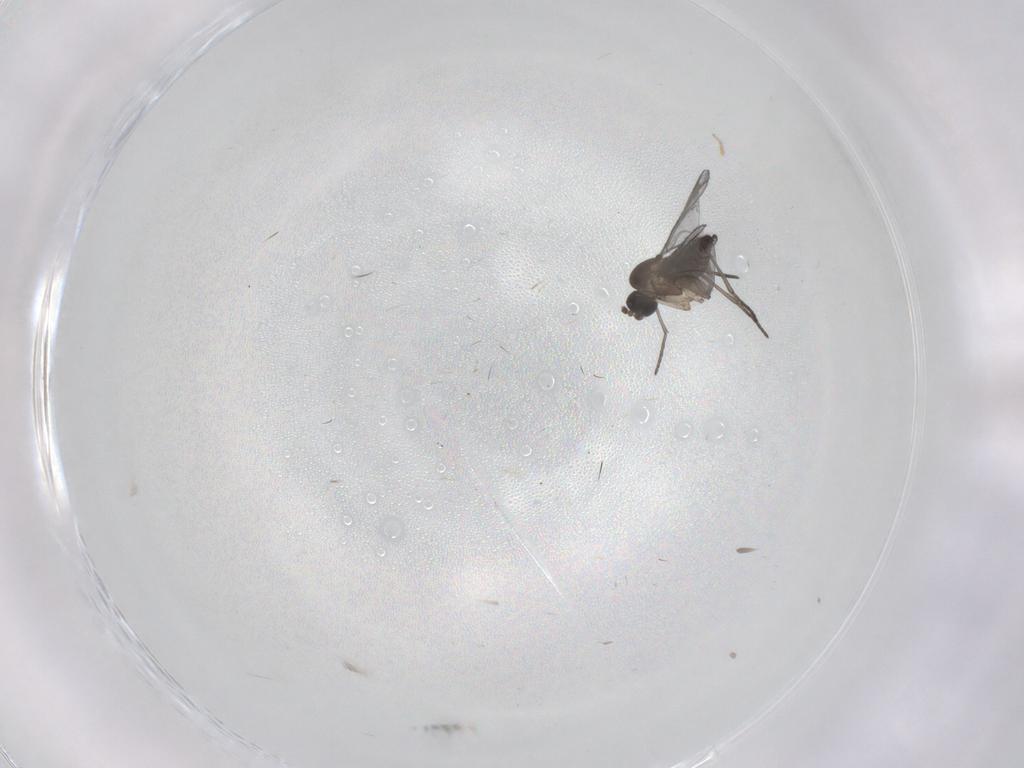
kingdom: Animalia
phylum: Arthropoda
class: Insecta
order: Diptera
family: Cecidomyiidae
